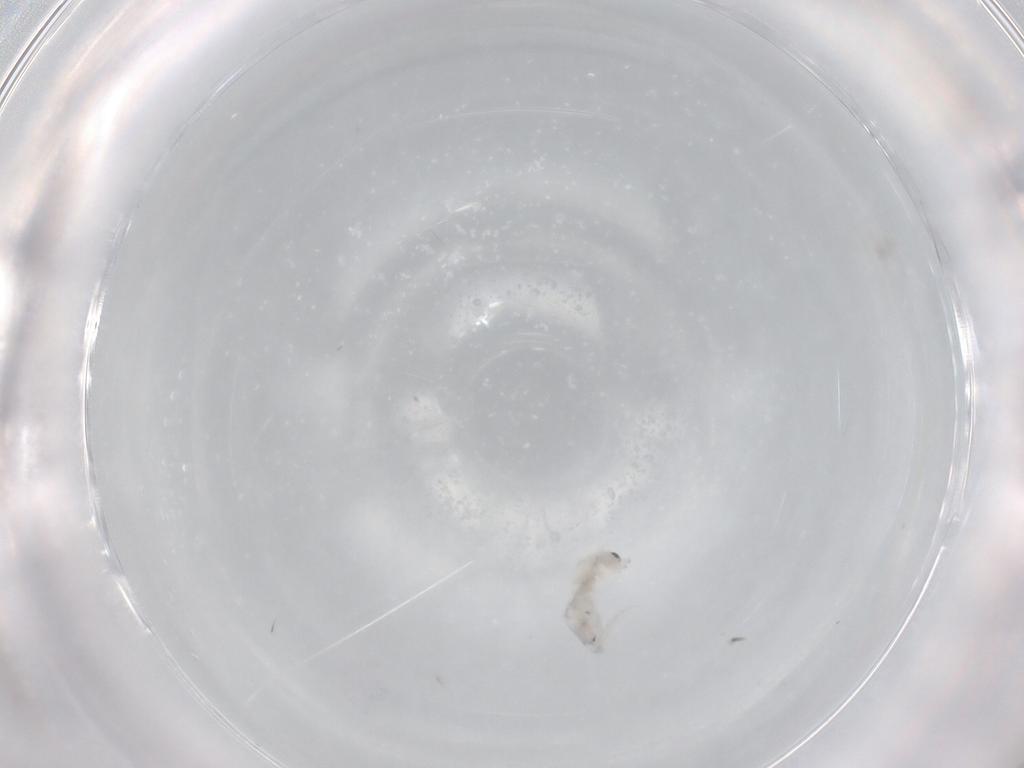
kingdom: Animalia
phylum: Arthropoda
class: Collembola
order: Entomobryomorpha
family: Entomobryidae
